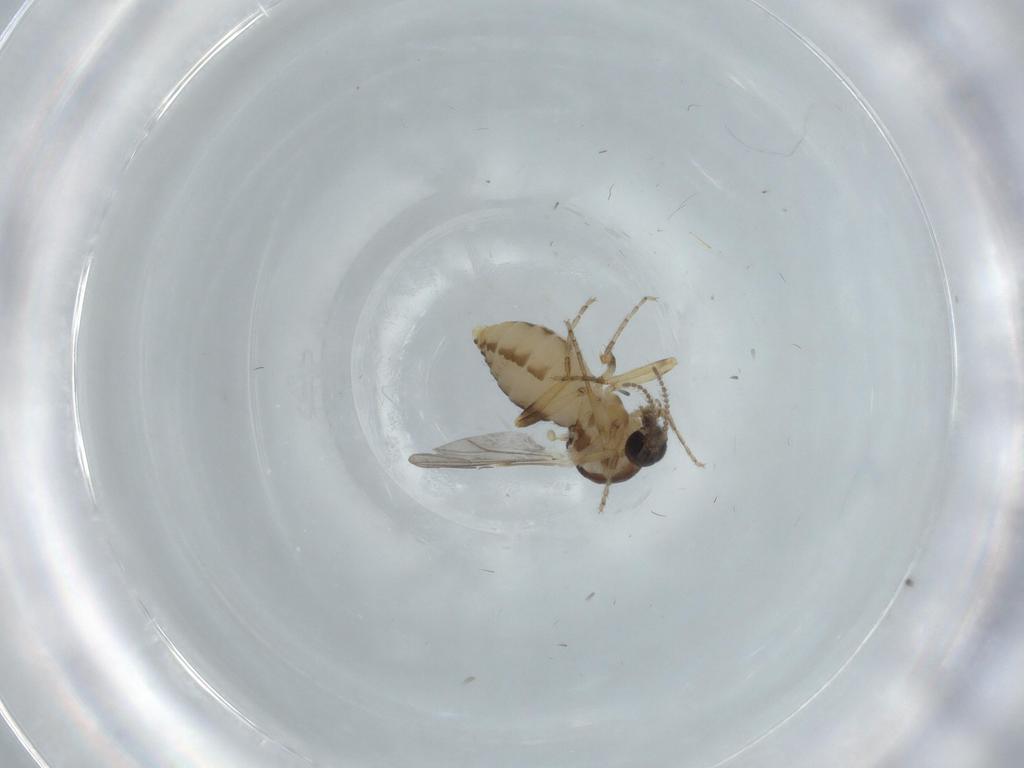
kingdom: Animalia
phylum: Arthropoda
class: Insecta
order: Diptera
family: Ceratopogonidae
